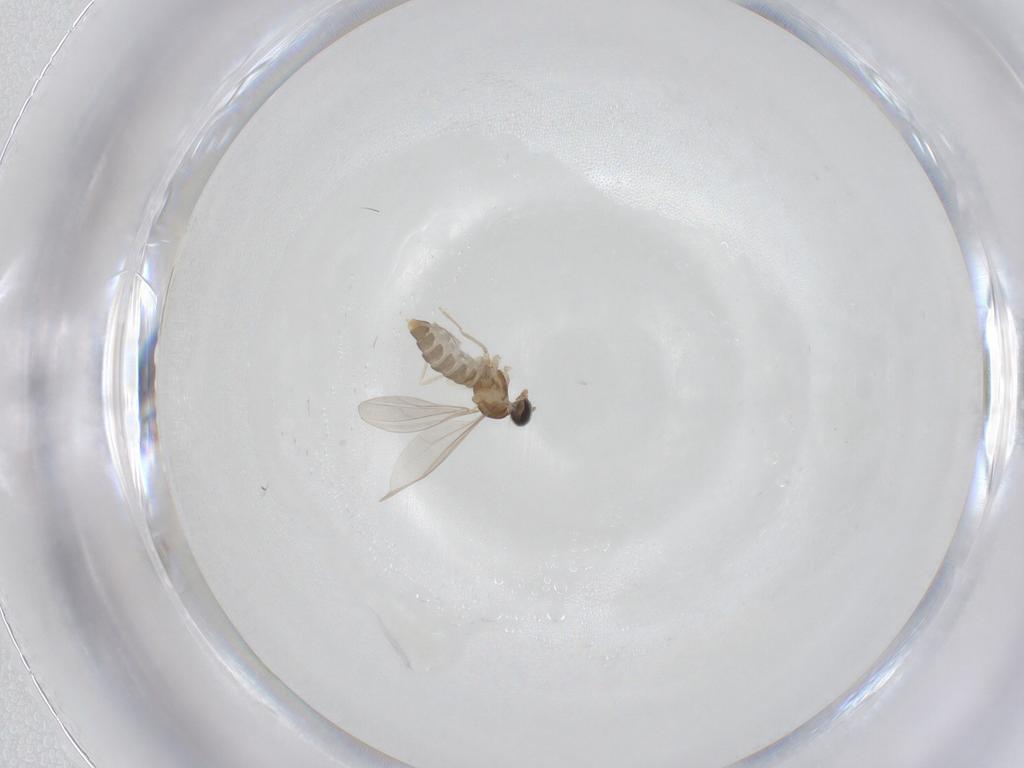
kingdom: Animalia
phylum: Arthropoda
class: Insecta
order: Diptera
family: Cecidomyiidae
